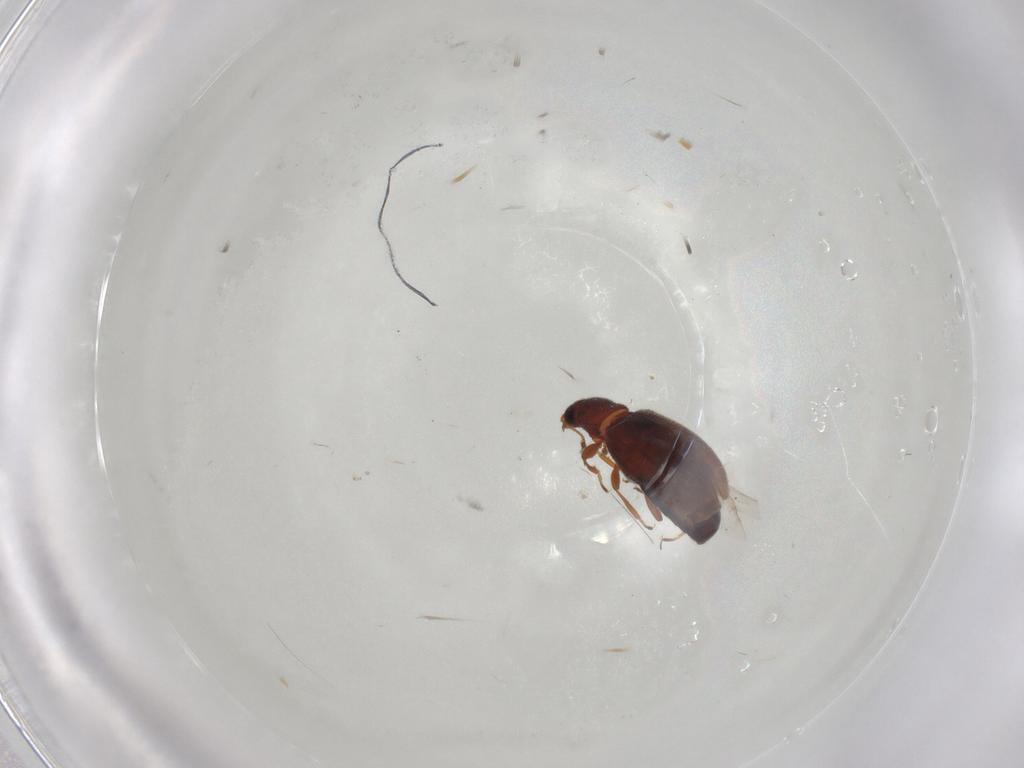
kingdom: Animalia
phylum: Arthropoda
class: Insecta
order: Coleoptera
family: Latridiidae
